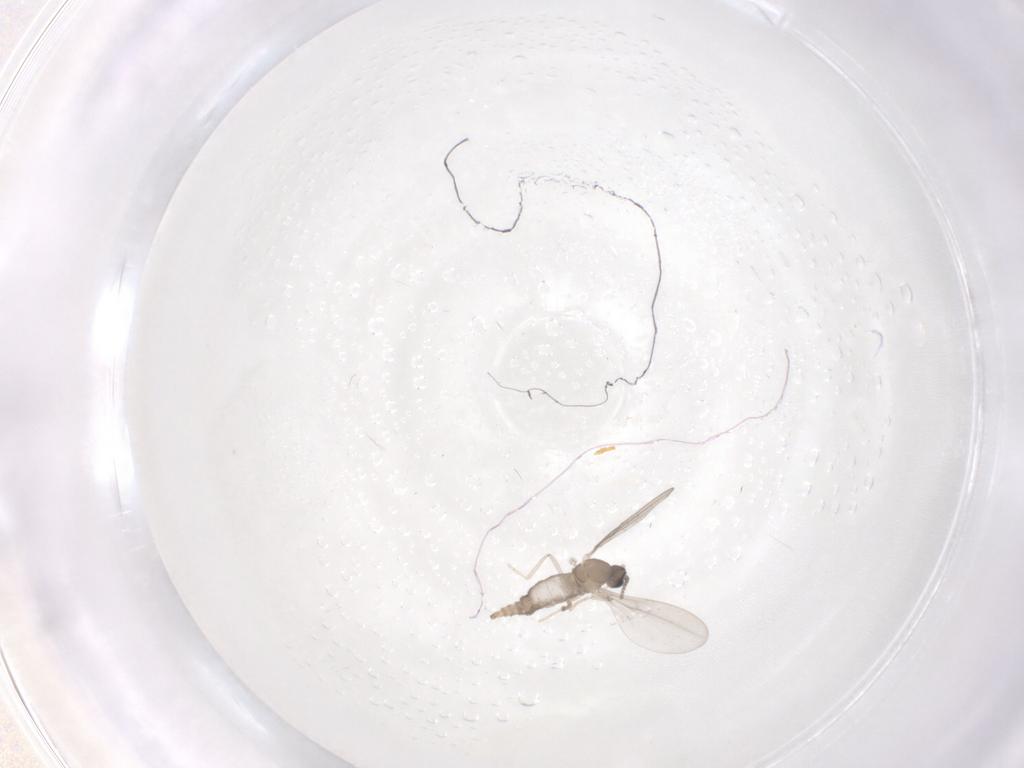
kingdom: Animalia
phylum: Arthropoda
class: Insecta
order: Diptera
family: Cecidomyiidae
